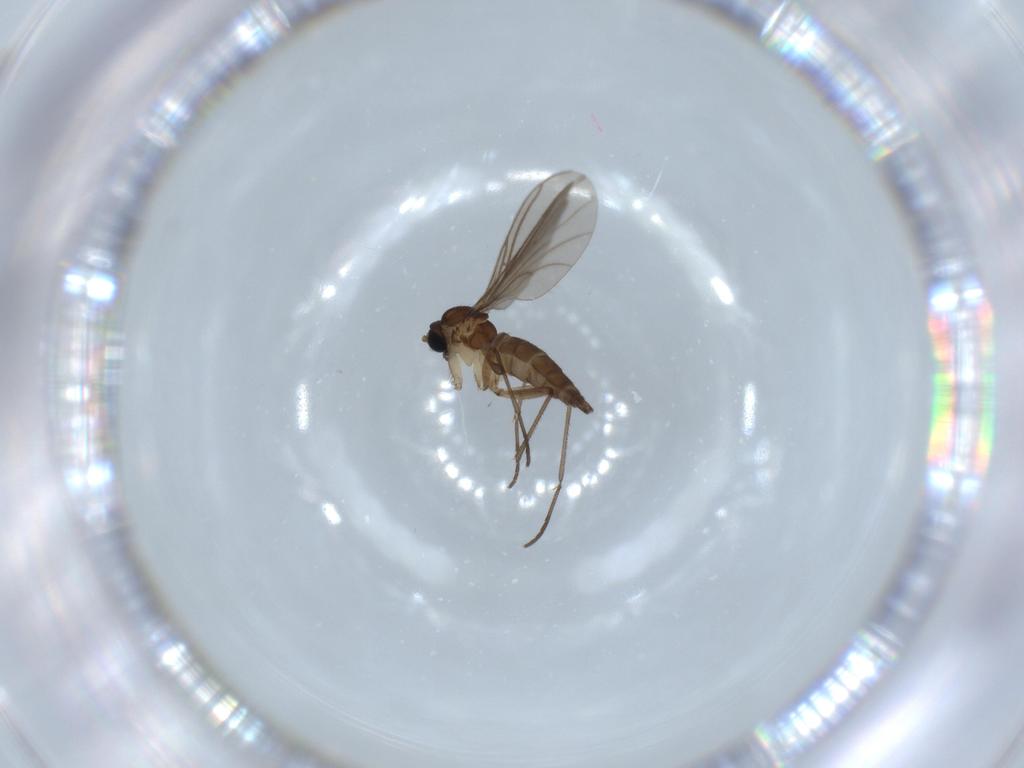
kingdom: Animalia
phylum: Arthropoda
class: Insecta
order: Diptera
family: Sciaridae
